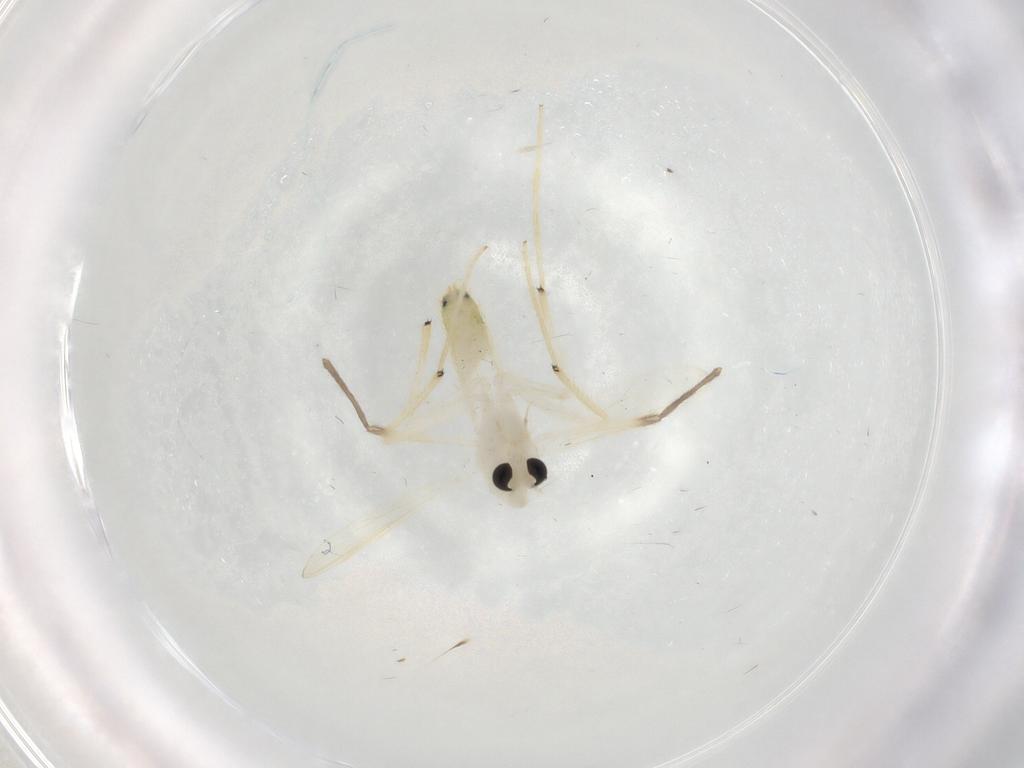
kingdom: Animalia
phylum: Arthropoda
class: Insecta
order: Diptera
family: Chironomidae
